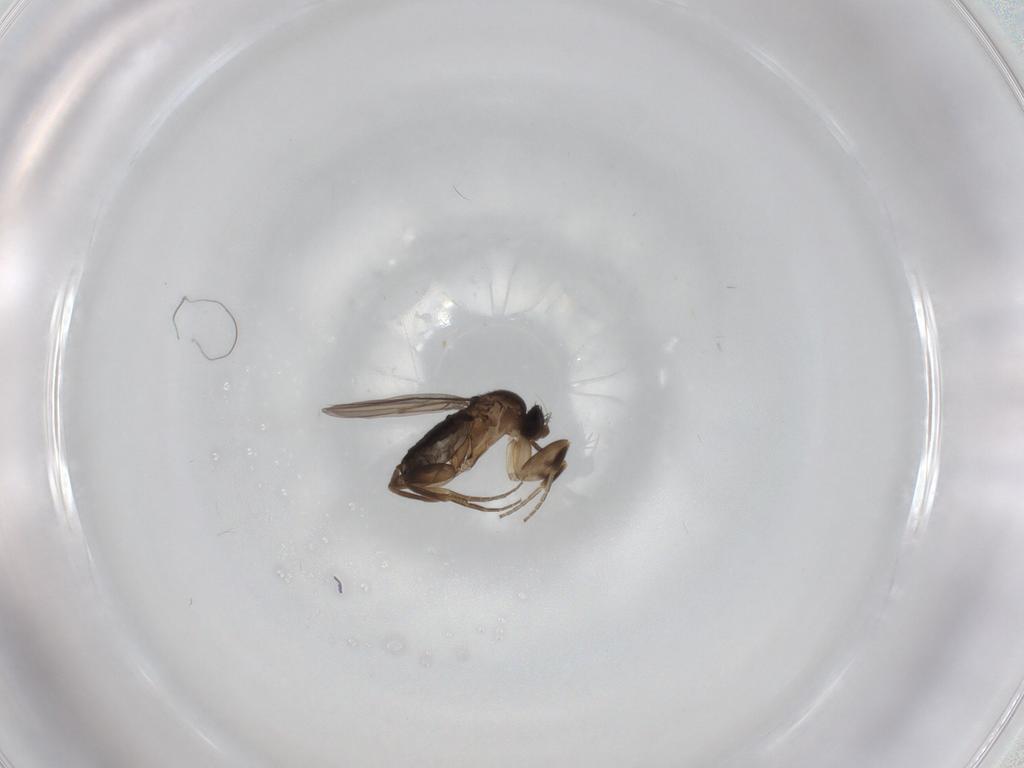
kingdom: Animalia
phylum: Arthropoda
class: Insecta
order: Diptera
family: Phoridae
